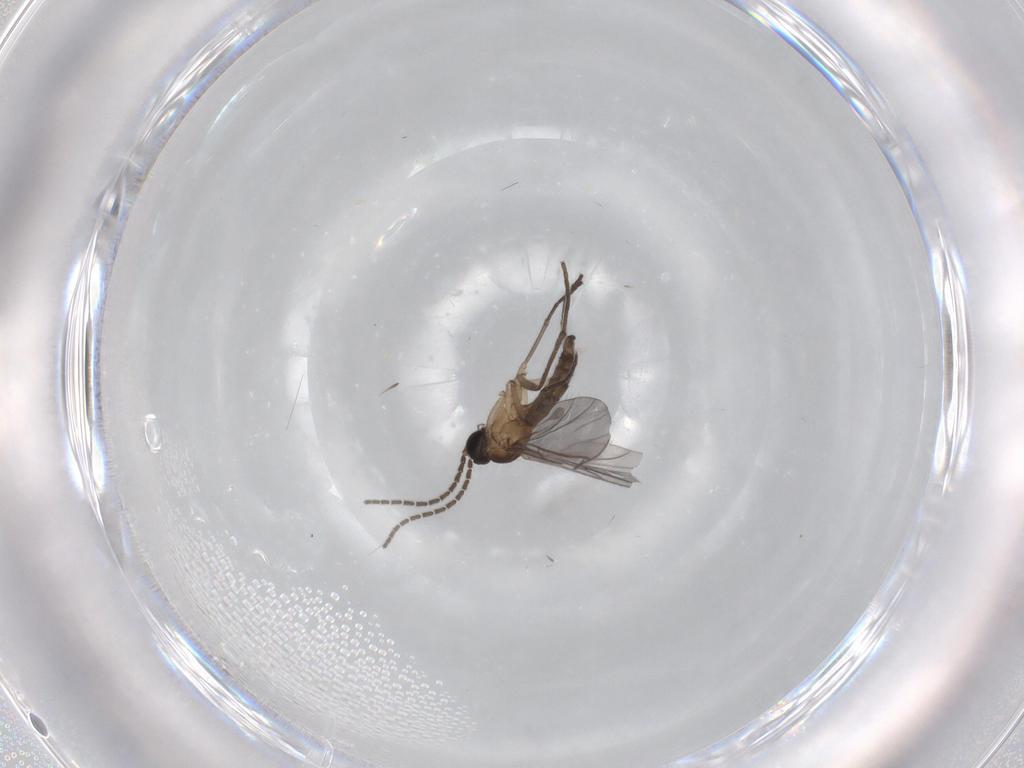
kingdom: Animalia
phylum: Arthropoda
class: Insecta
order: Diptera
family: Sciaridae
